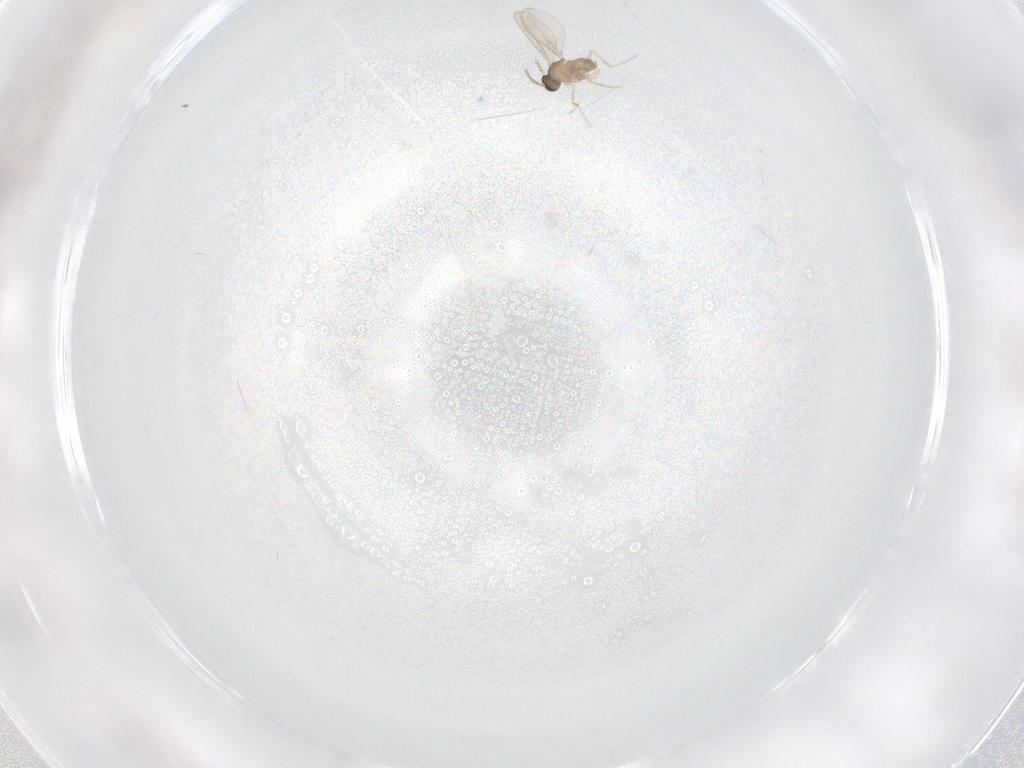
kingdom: Animalia
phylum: Arthropoda
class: Insecta
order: Diptera
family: Cecidomyiidae
